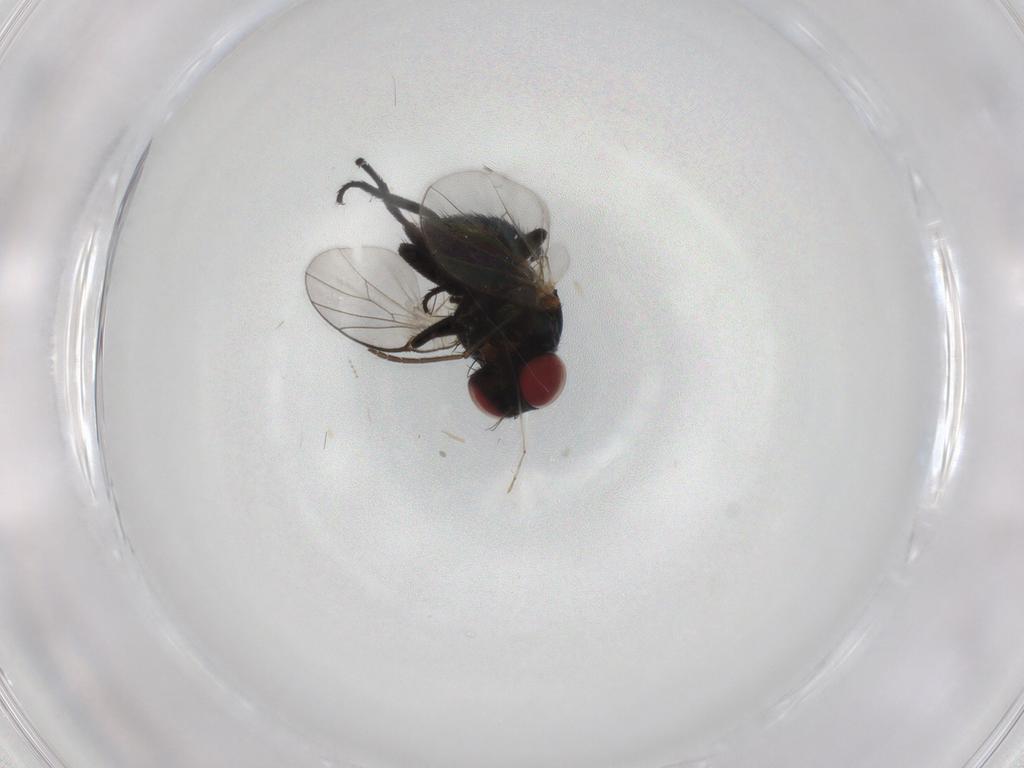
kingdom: Animalia
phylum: Arthropoda
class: Insecta
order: Diptera
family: Agromyzidae
